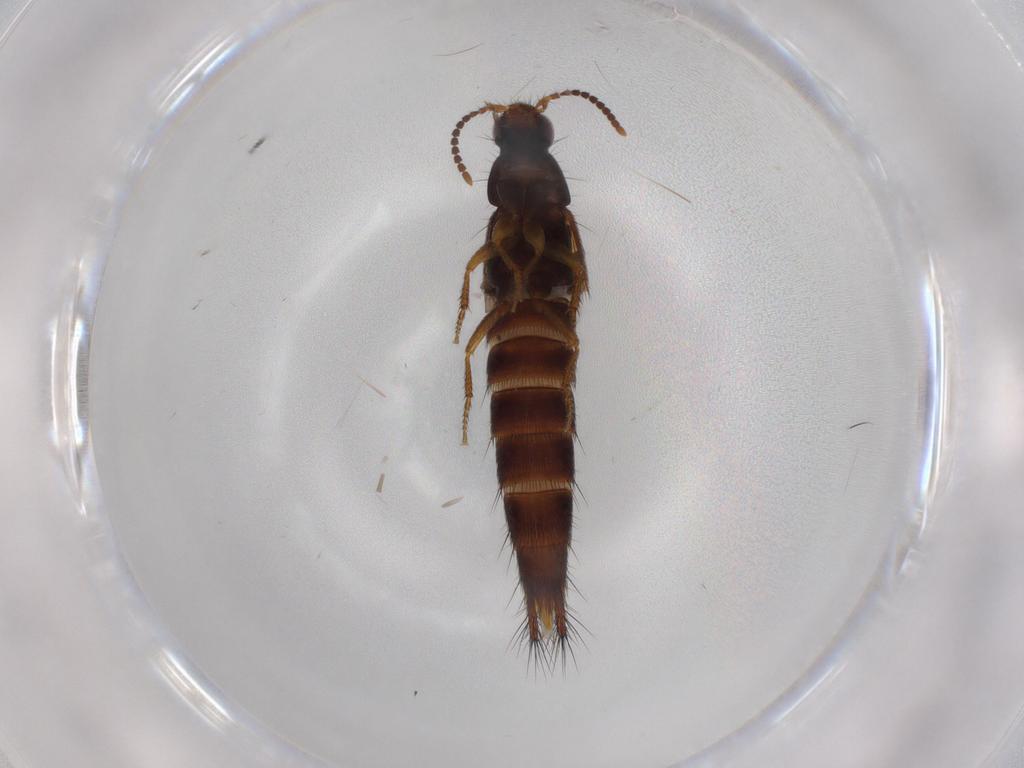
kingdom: Animalia
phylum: Arthropoda
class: Insecta
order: Coleoptera
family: Staphylinidae
